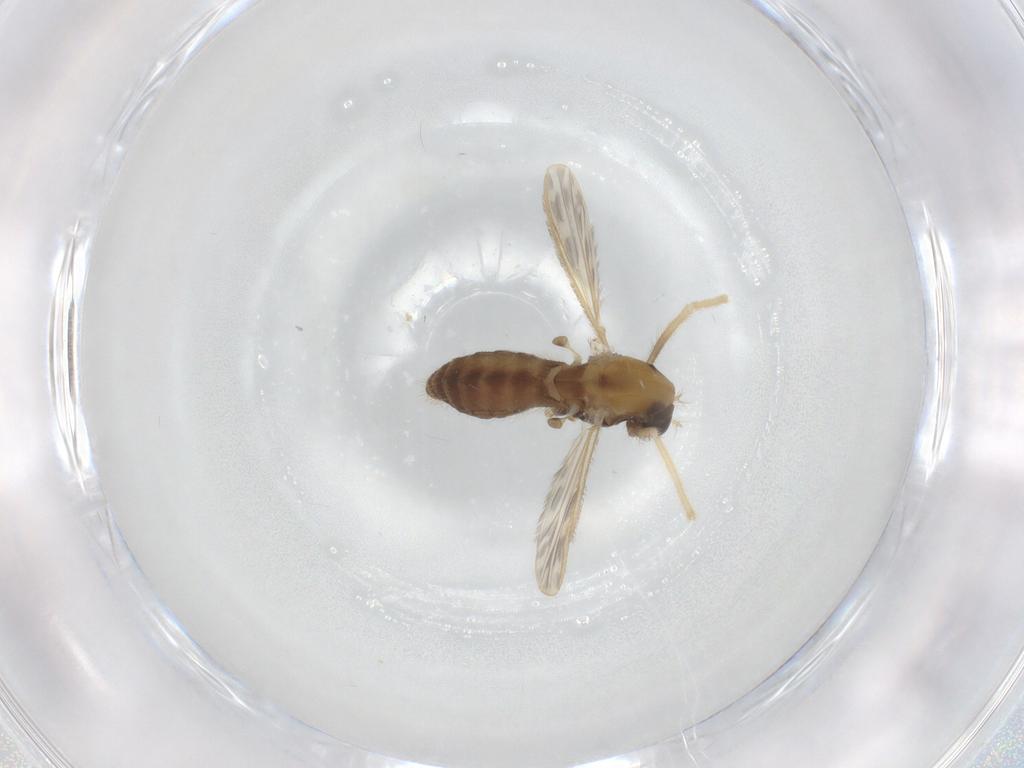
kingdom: Animalia
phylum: Arthropoda
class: Insecta
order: Diptera
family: Chironomidae
